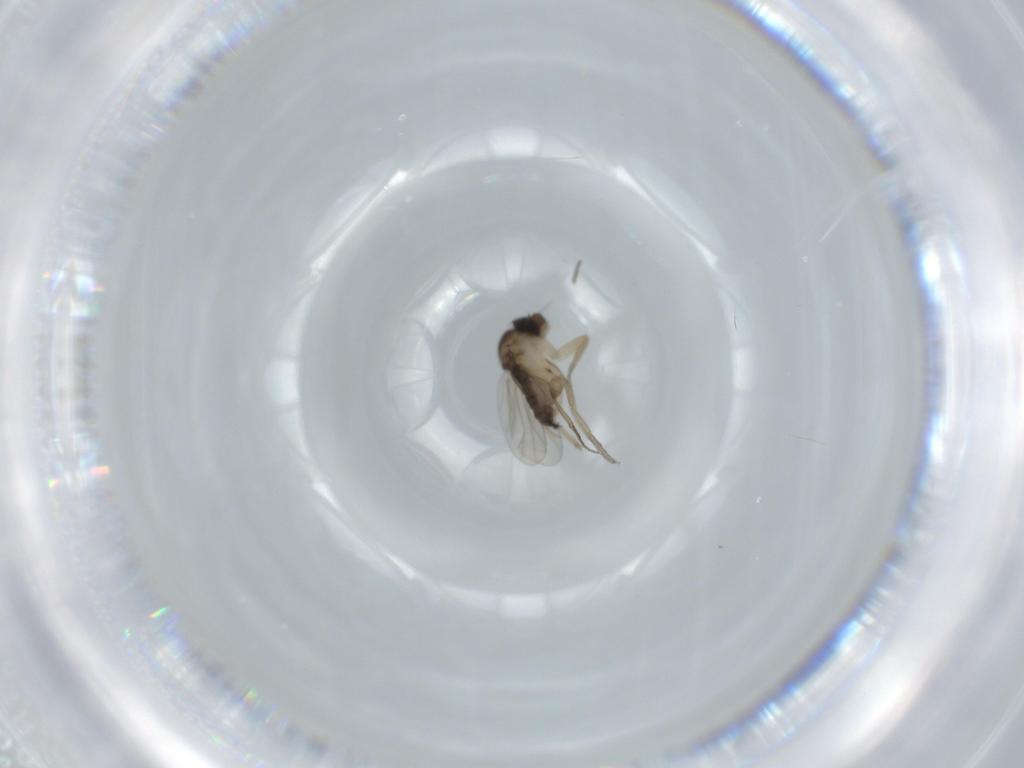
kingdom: Animalia
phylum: Arthropoda
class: Insecta
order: Diptera
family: Phoridae
